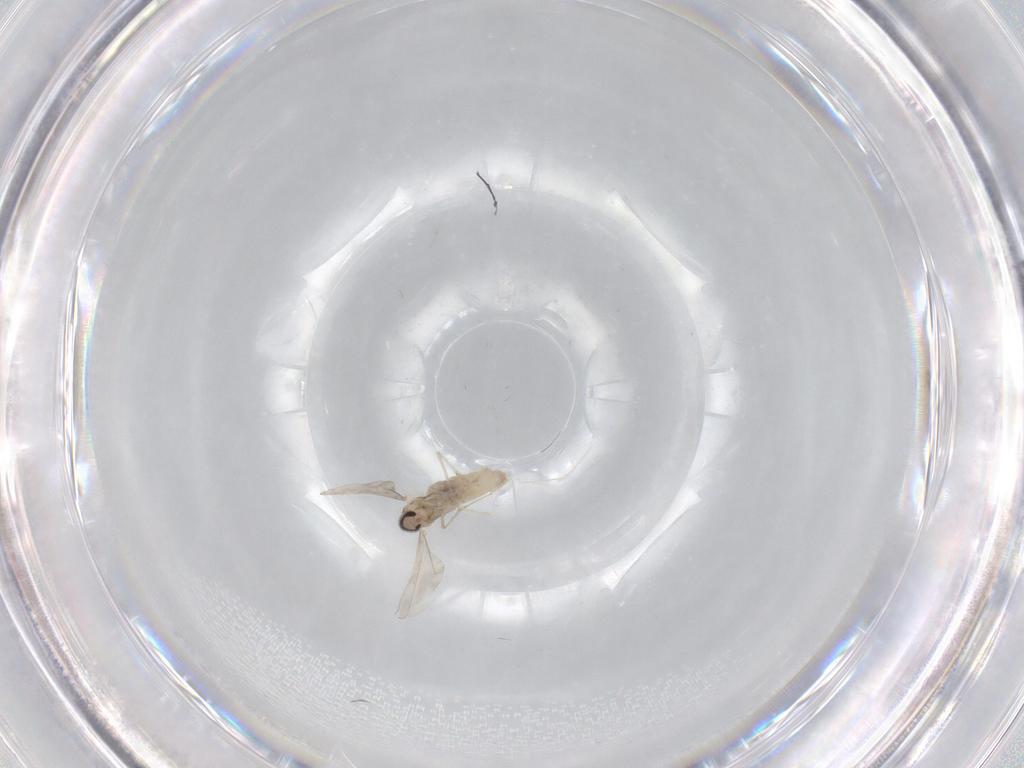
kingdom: Animalia
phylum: Arthropoda
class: Insecta
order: Diptera
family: Cecidomyiidae
